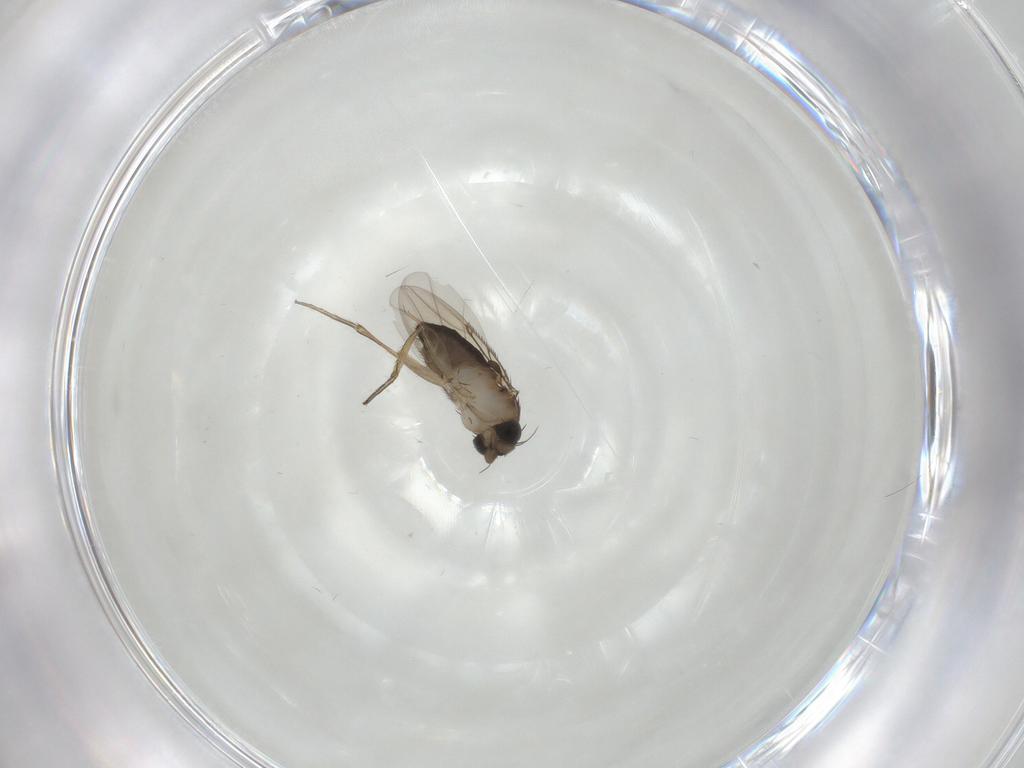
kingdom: Animalia
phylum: Arthropoda
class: Insecta
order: Diptera
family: Phoridae
